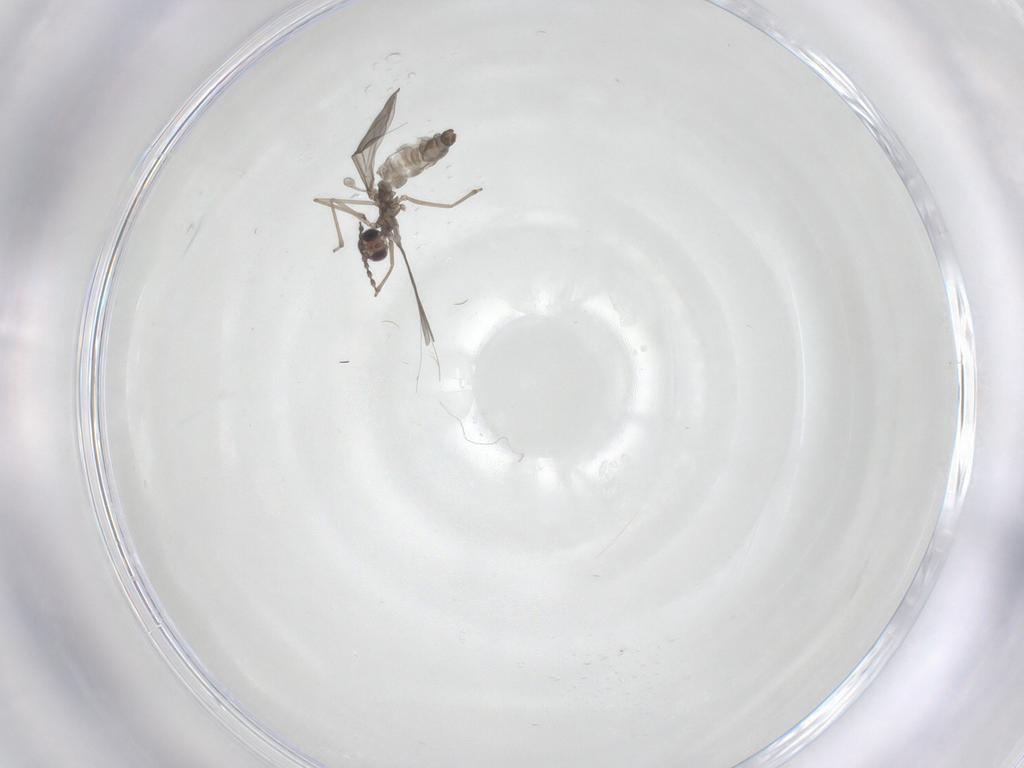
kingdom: Animalia
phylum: Arthropoda
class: Insecta
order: Diptera
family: Chironomidae
